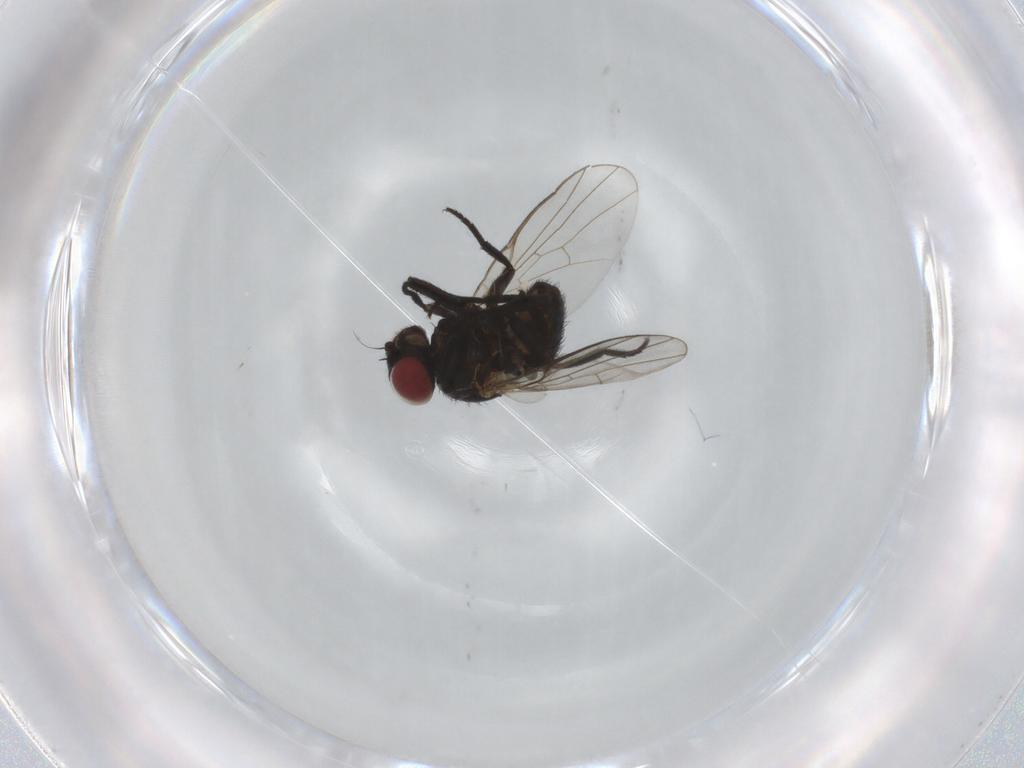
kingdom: Animalia
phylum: Arthropoda
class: Insecta
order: Diptera
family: Agromyzidae
